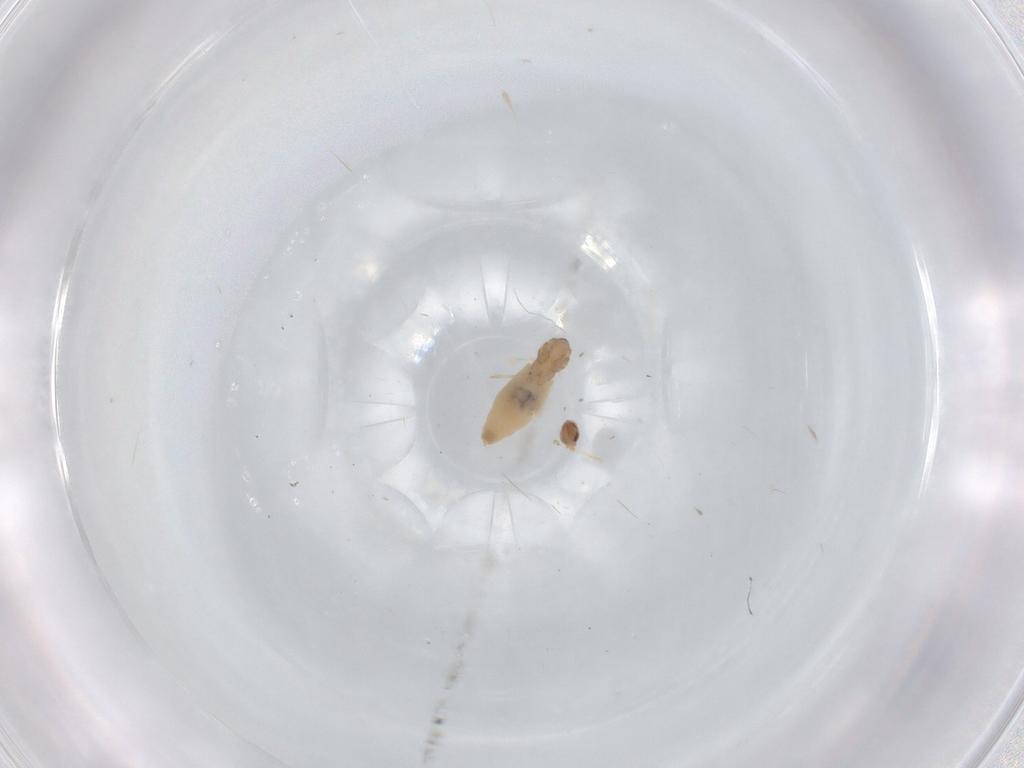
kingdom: Animalia
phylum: Arthropoda
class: Insecta
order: Diptera
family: Cecidomyiidae
